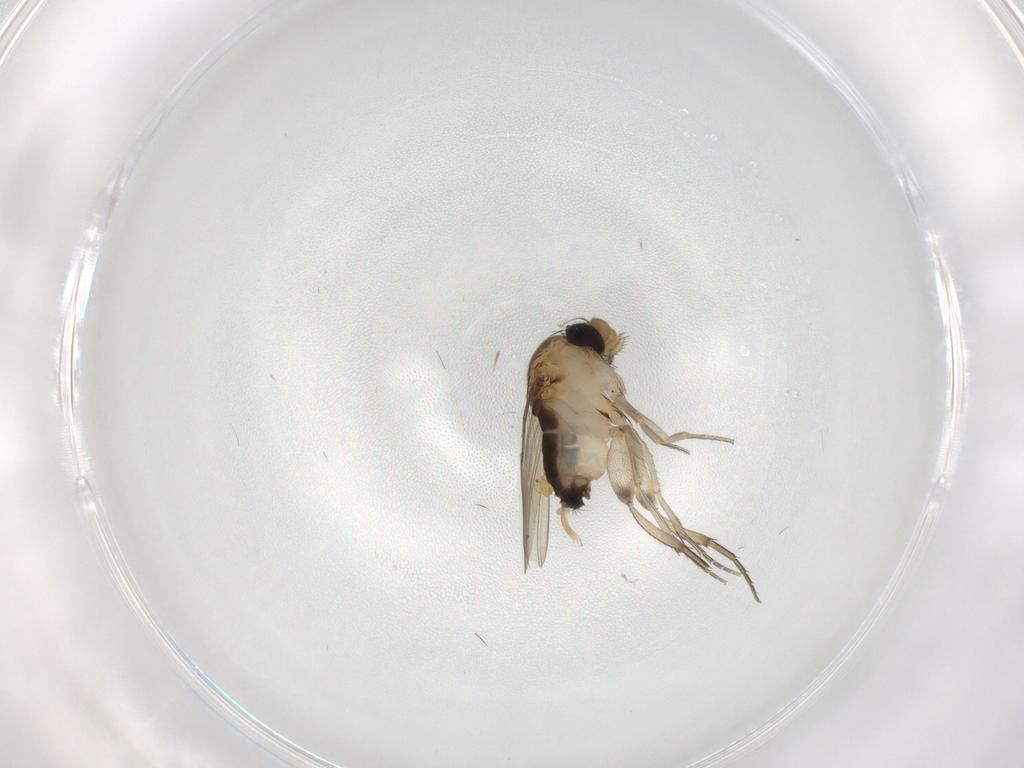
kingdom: Animalia
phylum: Arthropoda
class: Insecta
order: Diptera
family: Phoridae
